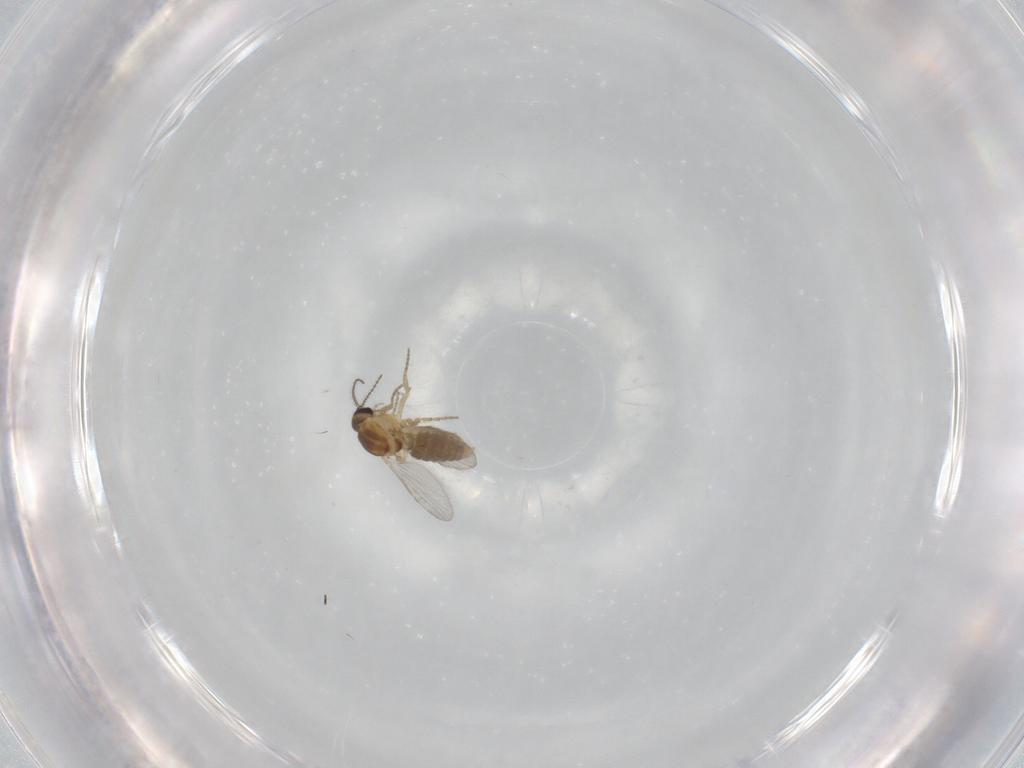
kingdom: Animalia
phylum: Arthropoda
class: Insecta
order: Diptera
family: Ceratopogonidae
